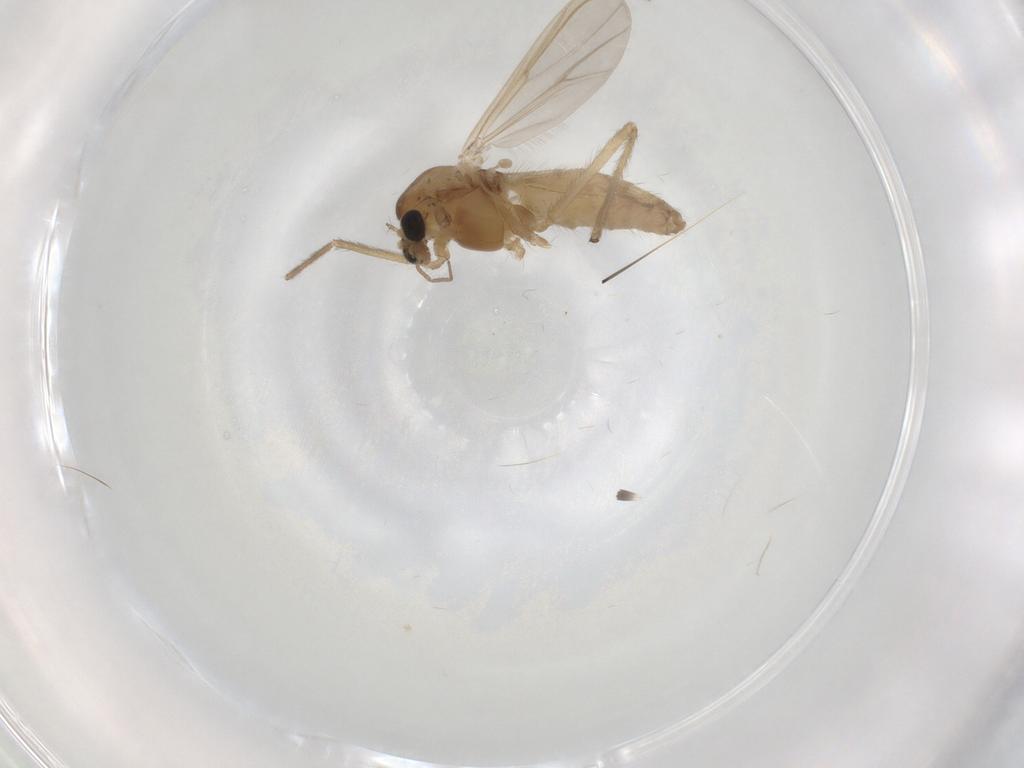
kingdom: Animalia
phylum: Arthropoda
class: Insecta
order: Diptera
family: Chironomidae
